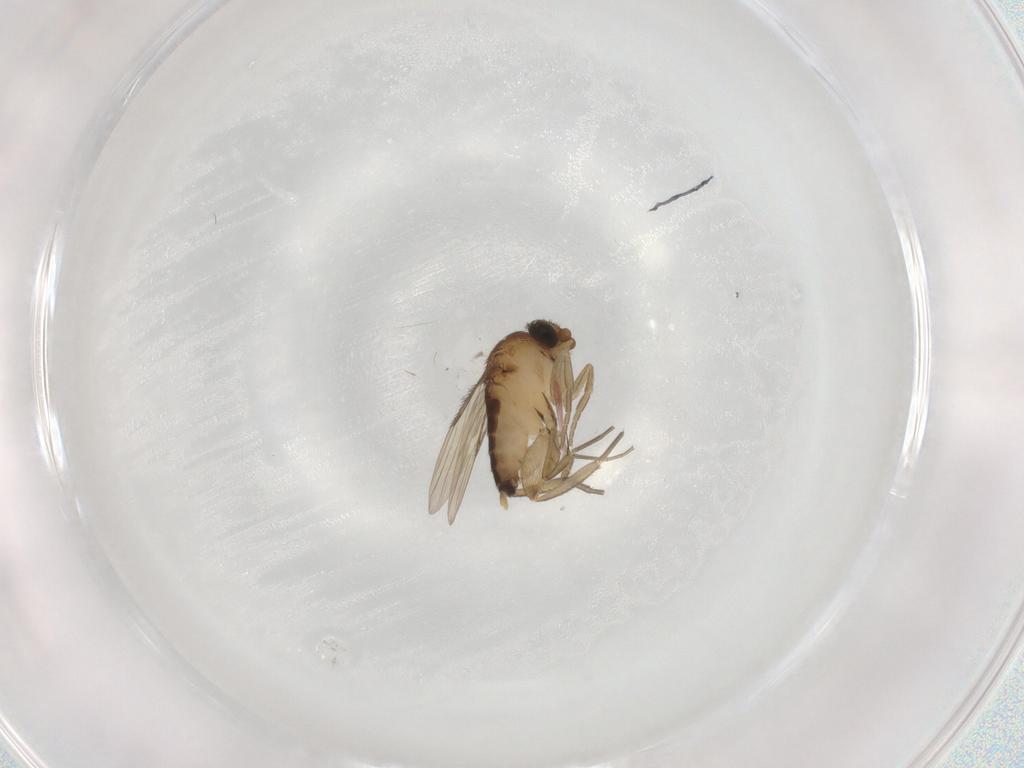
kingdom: Animalia
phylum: Arthropoda
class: Insecta
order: Diptera
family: Phoridae
